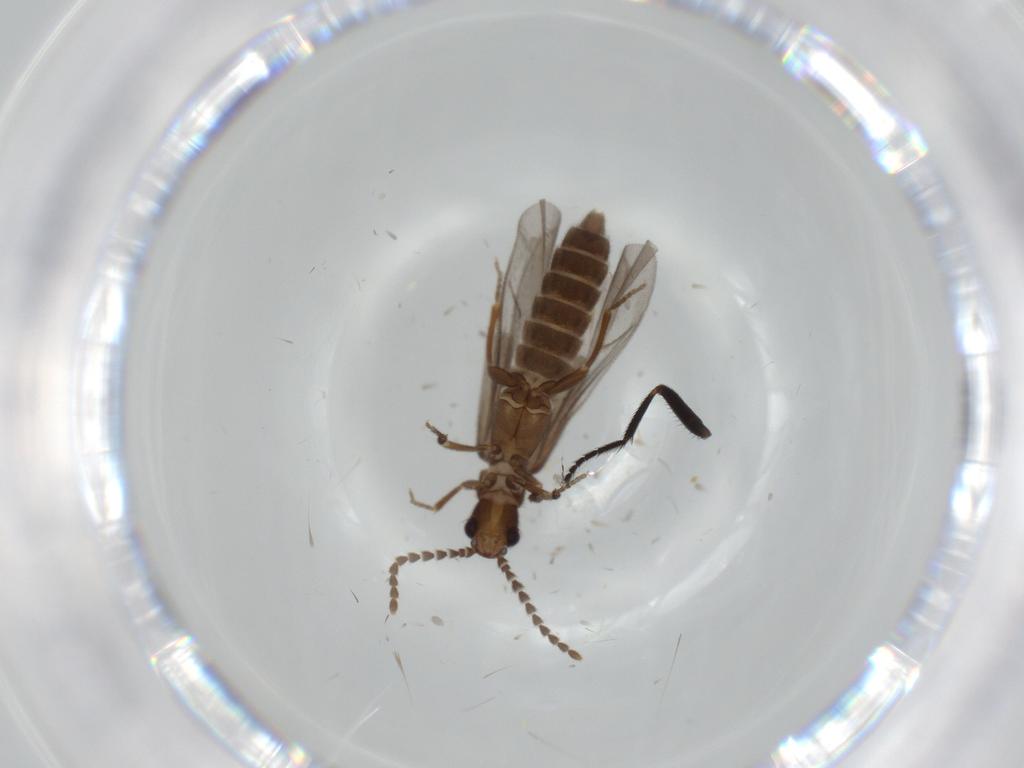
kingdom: Animalia
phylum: Arthropoda
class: Insecta
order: Coleoptera
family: Omethidae
